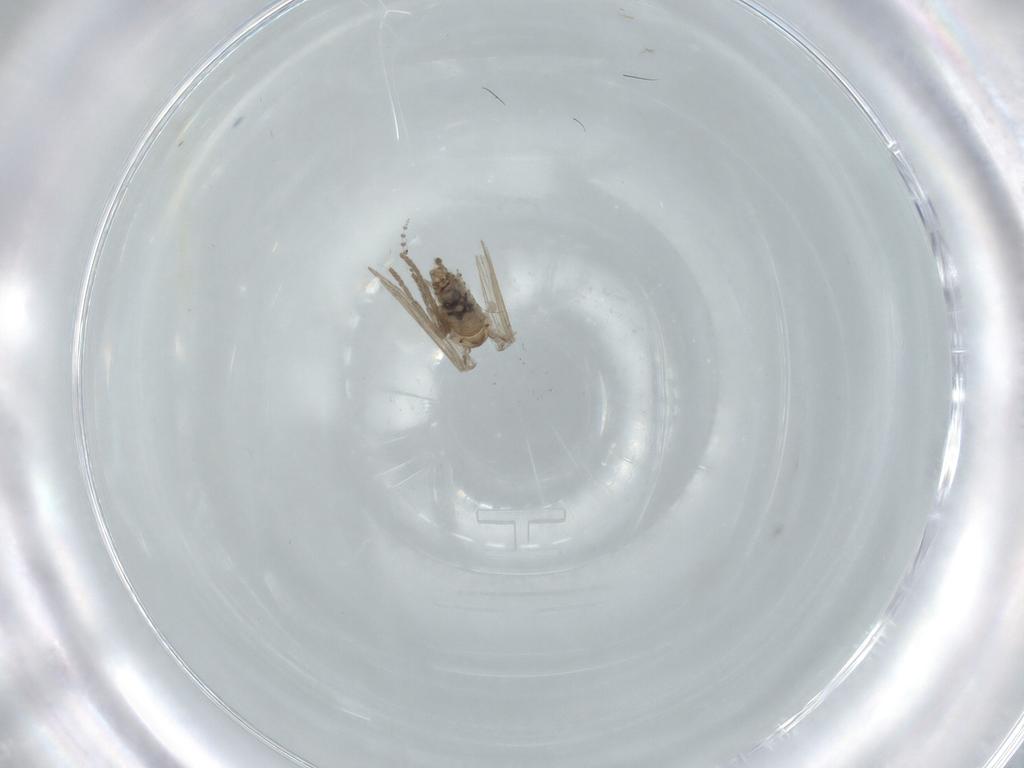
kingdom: Animalia
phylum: Arthropoda
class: Insecta
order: Diptera
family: Psychodidae
